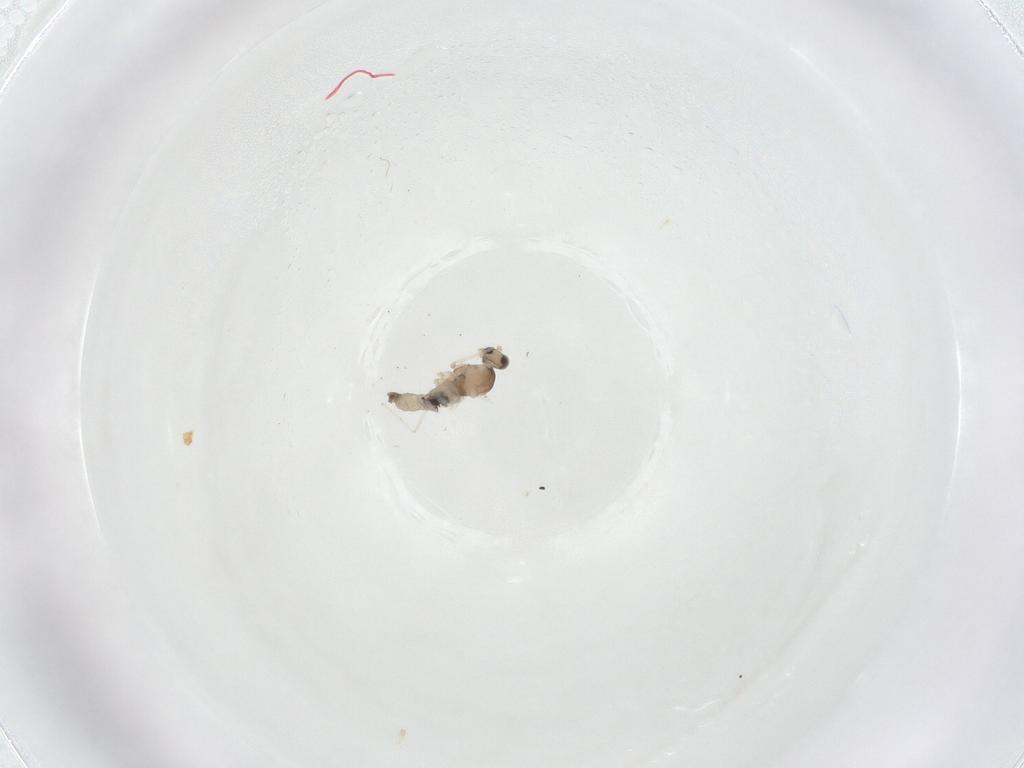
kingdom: Animalia
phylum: Arthropoda
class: Insecta
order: Diptera
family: Cecidomyiidae
